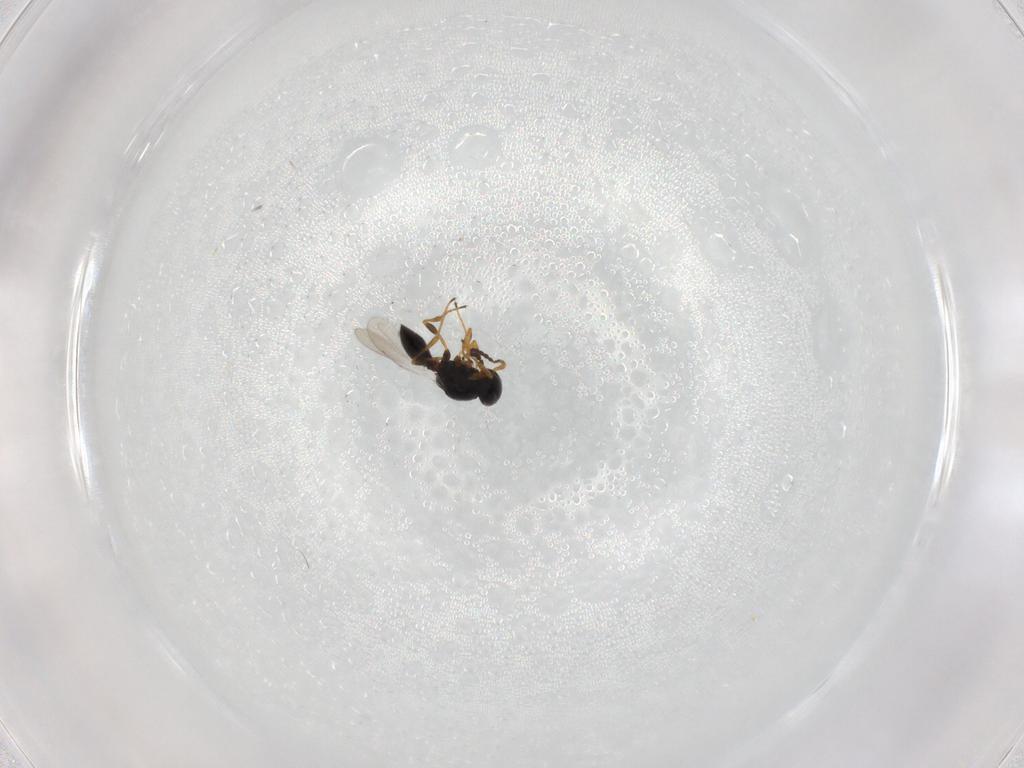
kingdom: Animalia
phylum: Arthropoda
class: Insecta
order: Hymenoptera
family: Platygastridae
